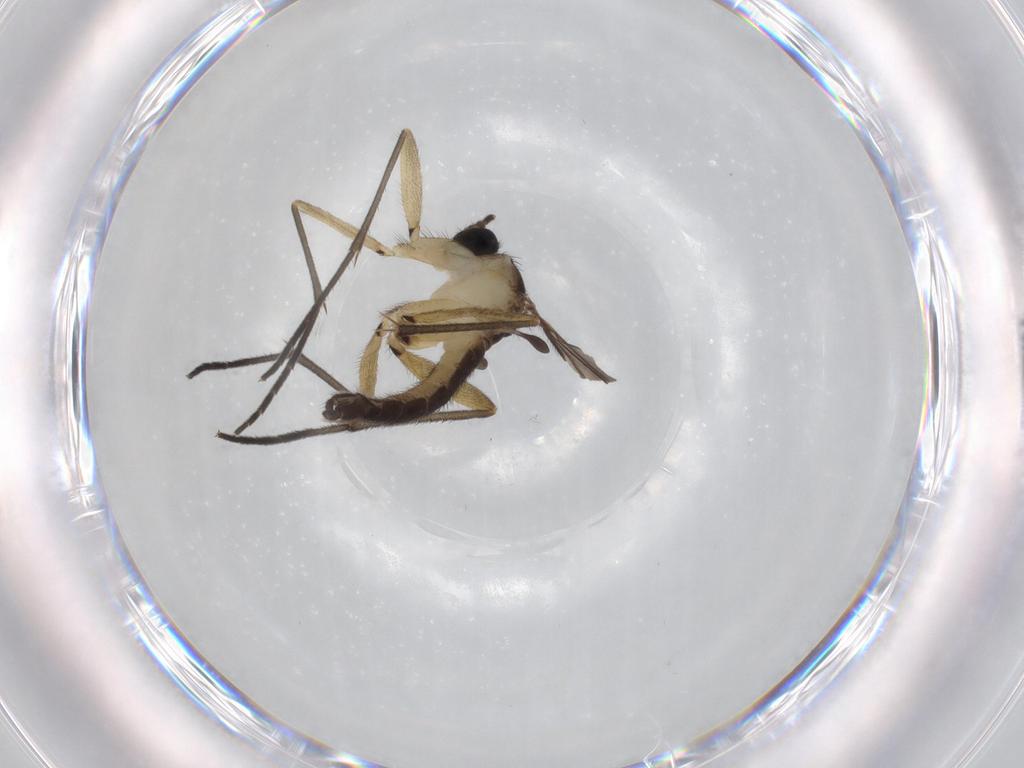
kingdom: Animalia
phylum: Arthropoda
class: Insecta
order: Diptera
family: Sciaridae
